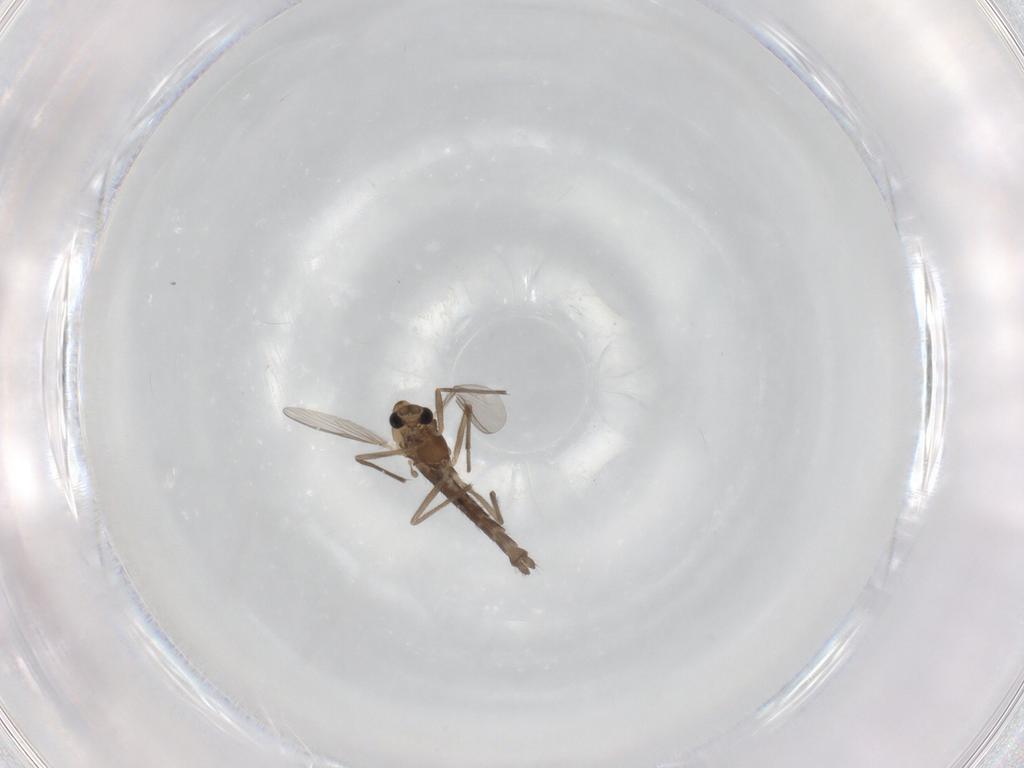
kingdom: Animalia
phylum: Arthropoda
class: Insecta
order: Diptera
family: Chironomidae
